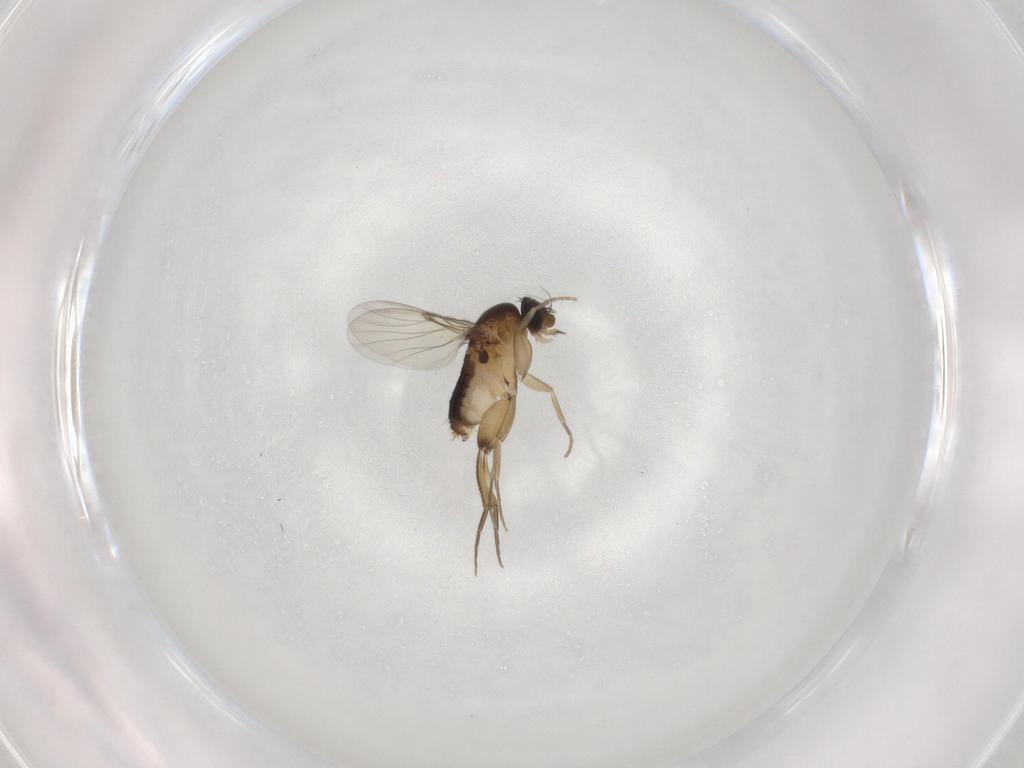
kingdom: Animalia
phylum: Arthropoda
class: Insecta
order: Diptera
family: Phoridae
